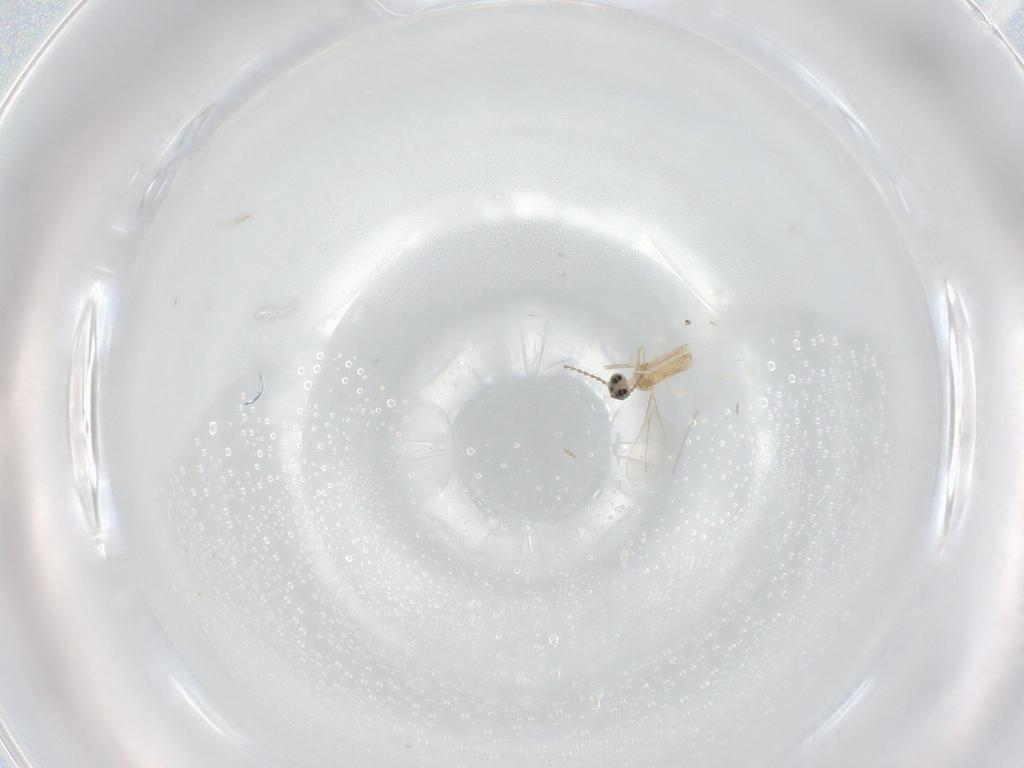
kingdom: Animalia
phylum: Arthropoda
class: Insecta
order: Diptera
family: Cecidomyiidae
